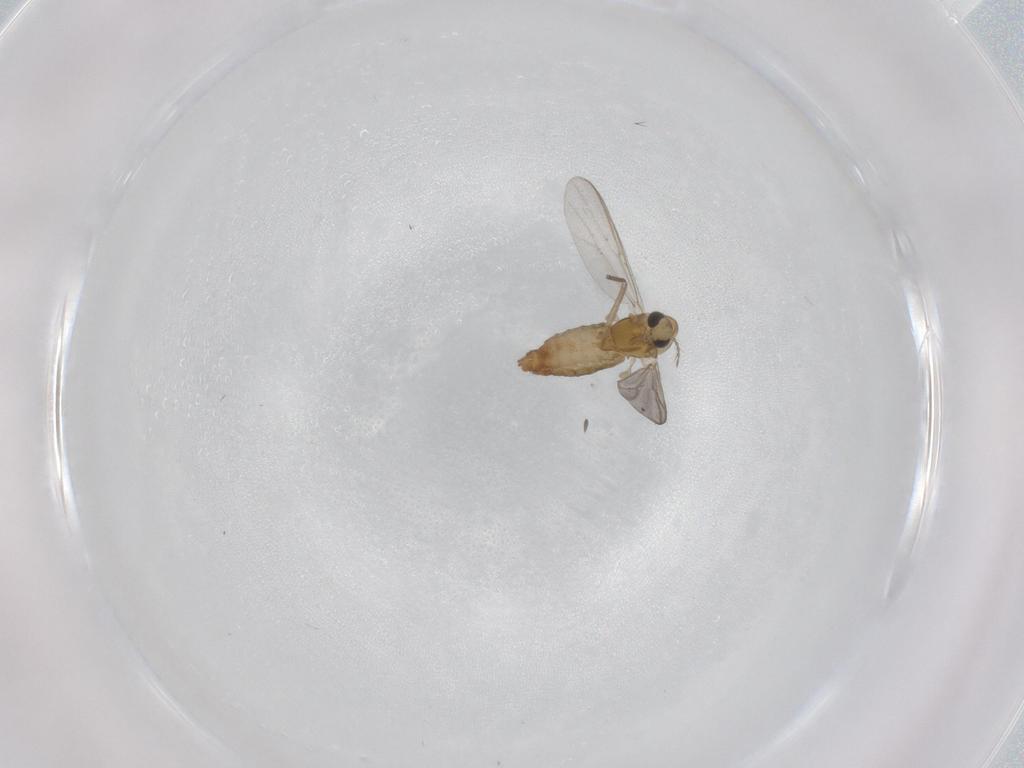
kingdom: Animalia
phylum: Arthropoda
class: Insecta
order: Diptera
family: Chironomidae
